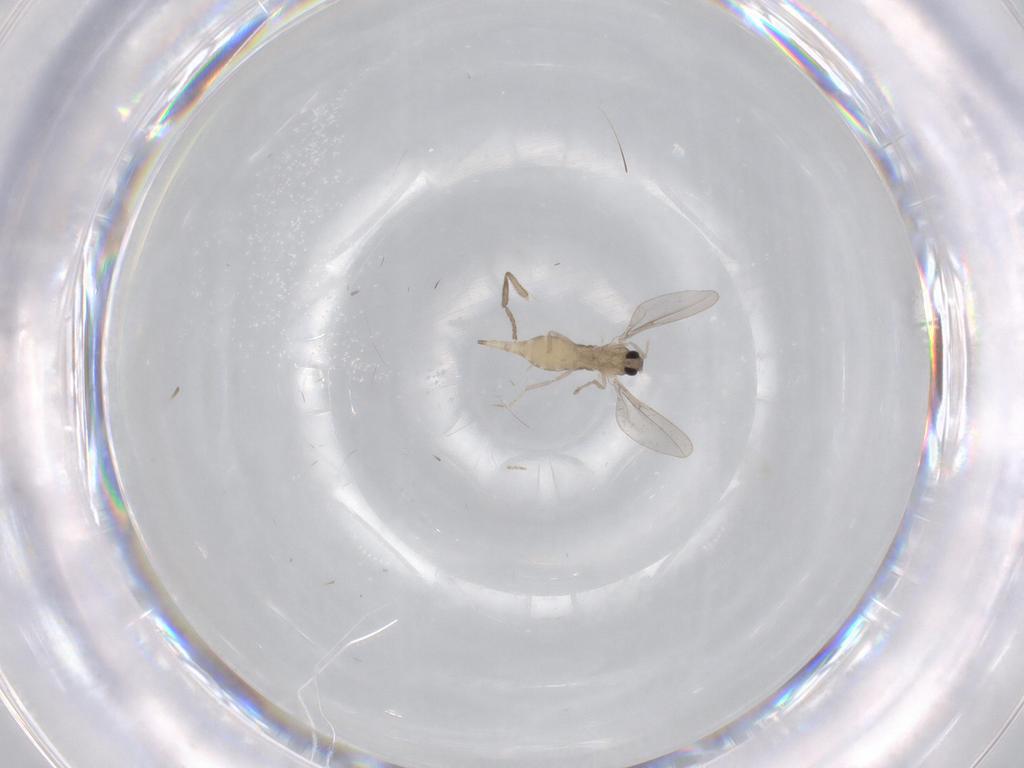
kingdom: Animalia
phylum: Arthropoda
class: Insecta
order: Diptera
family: Cecidomyiidae
